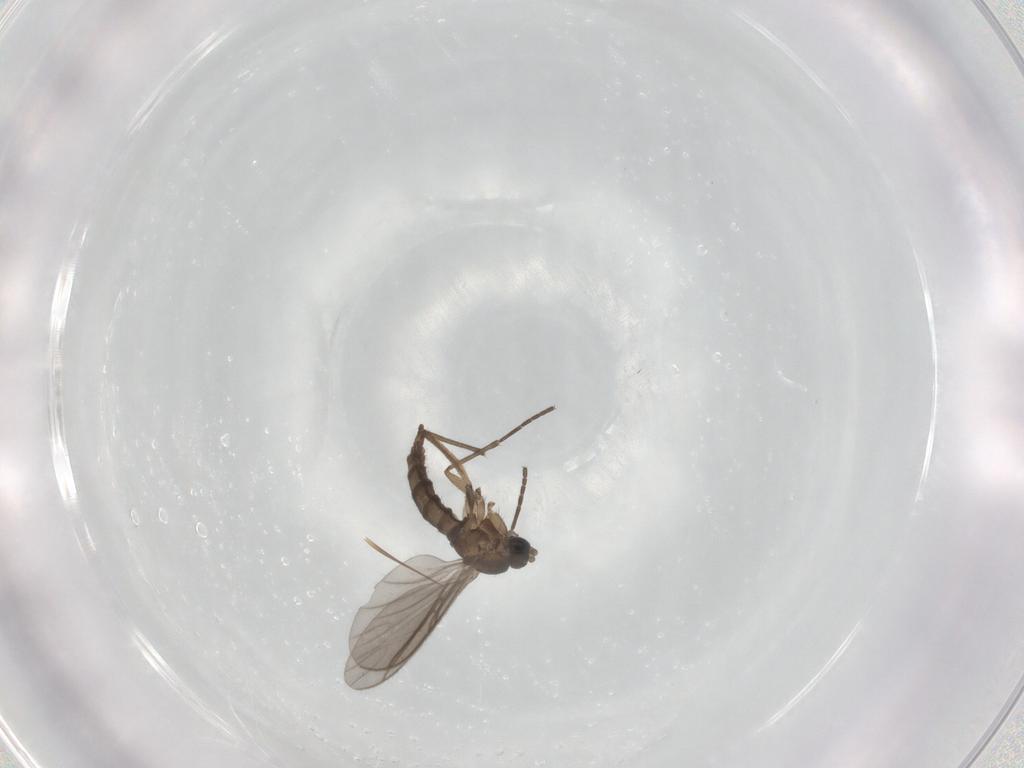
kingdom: Animalia
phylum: Arthropoda
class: Insecta
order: Diptera
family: Sciaridae
